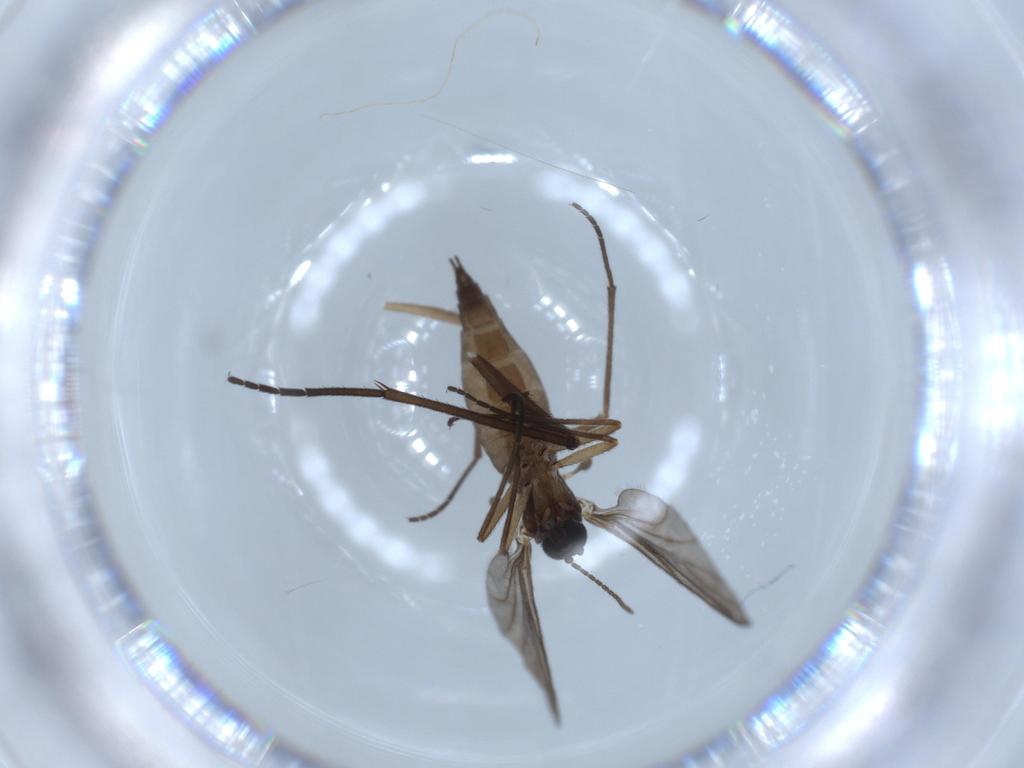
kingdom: Animalia
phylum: Arthropoda
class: Insecta
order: Diptera
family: Sciaridae
